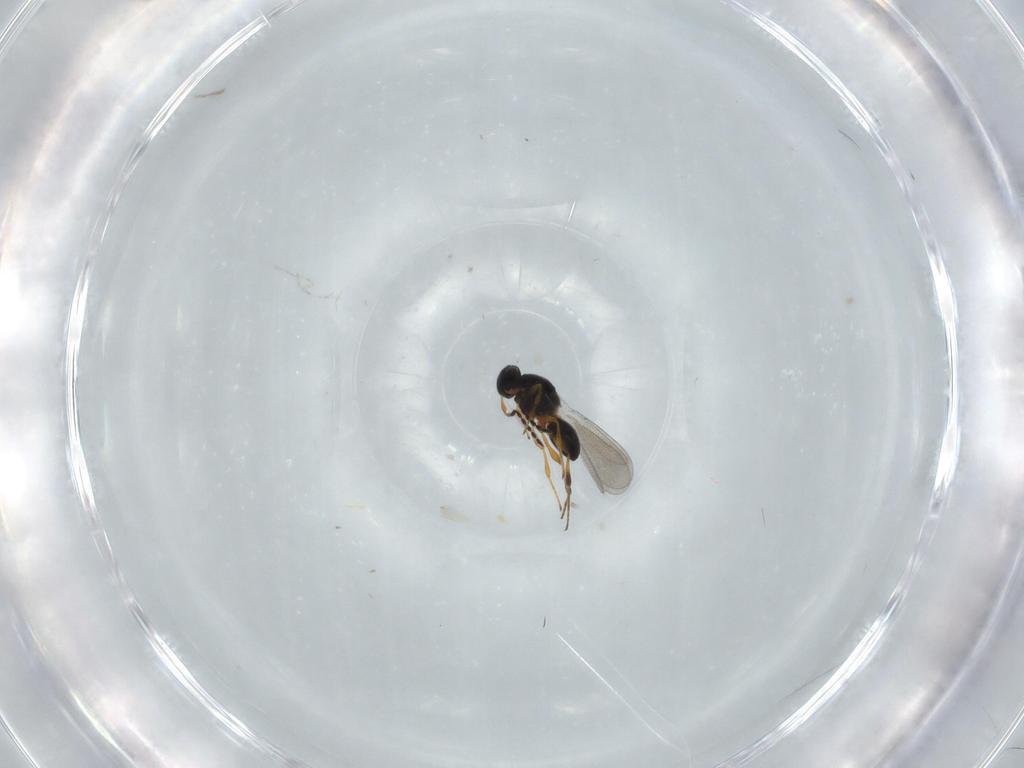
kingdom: Animalia
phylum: Arthropoda
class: Insecta
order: Hymenoptera
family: Platygastridae
